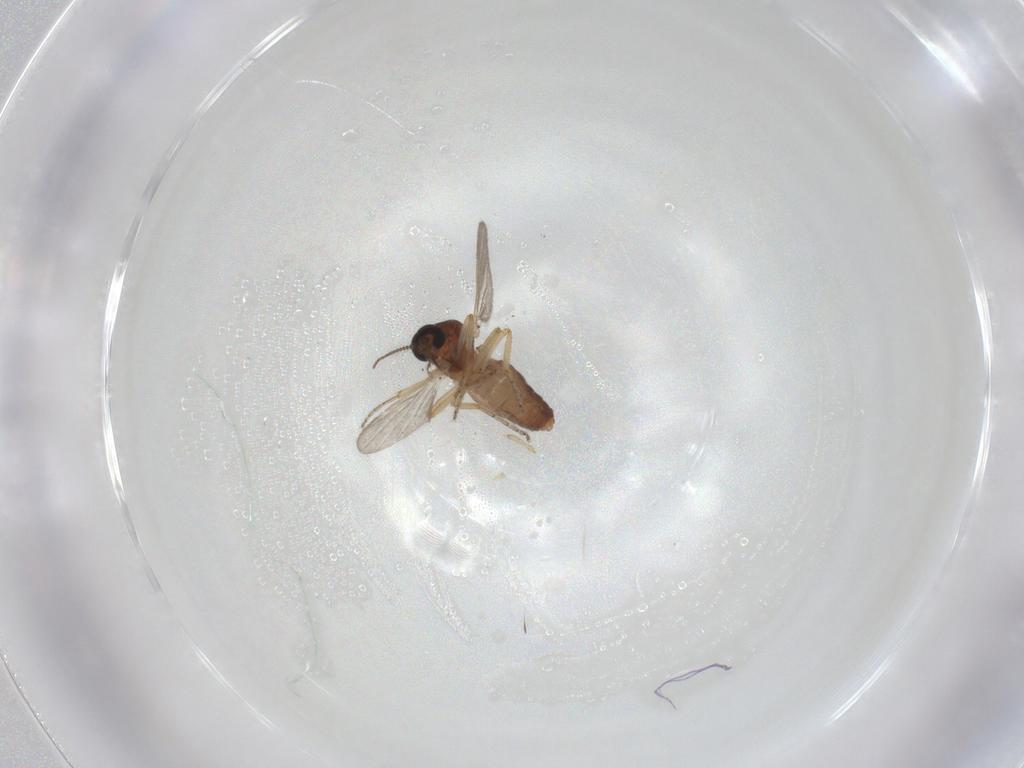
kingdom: Animalia
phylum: Arthropoda
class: Insecta
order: Diptera
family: Ceratopogonidae
